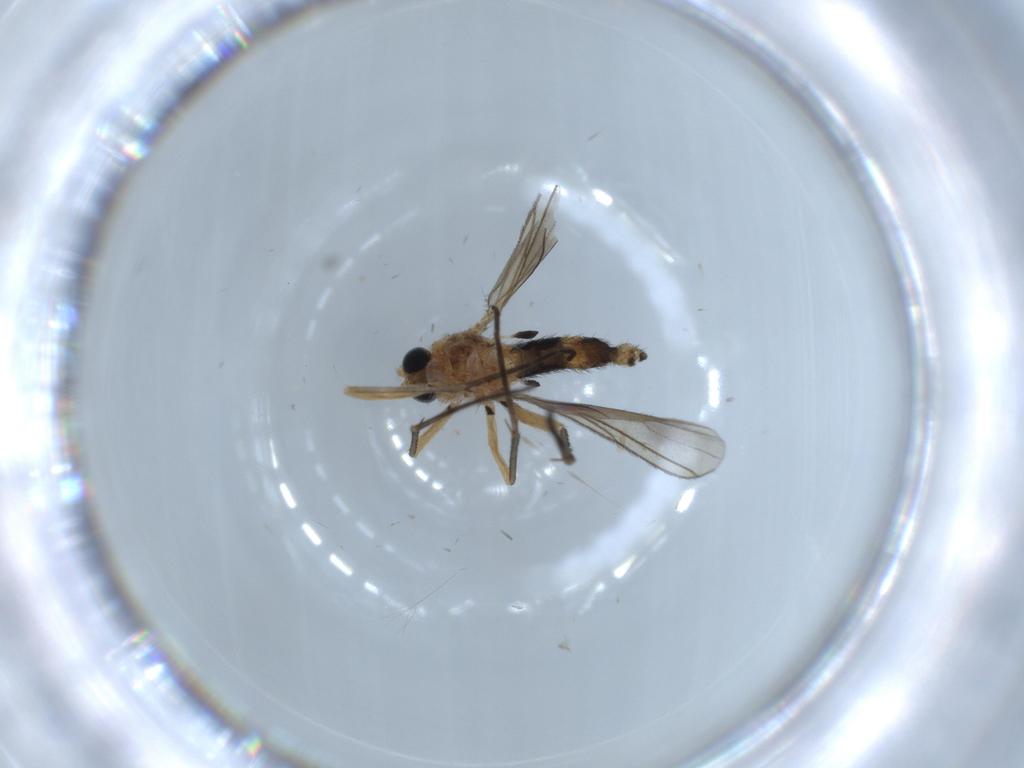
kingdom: Animalia
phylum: Arthropoda
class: Insecta
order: Diptera
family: Sciaridae
